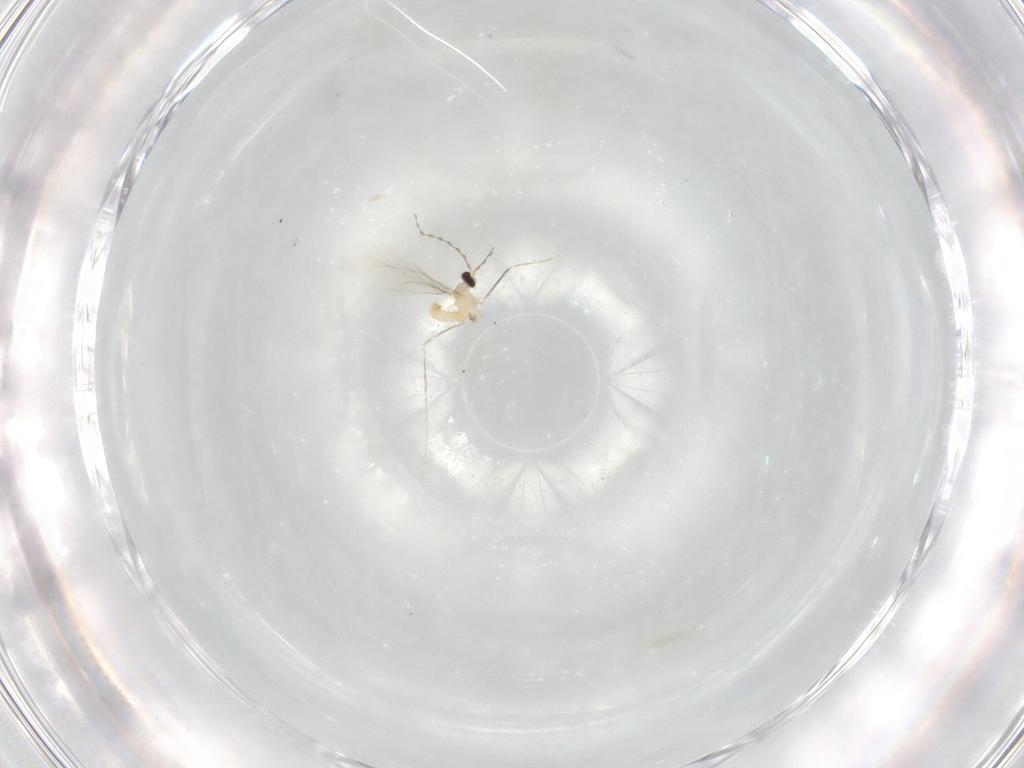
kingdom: Animalia
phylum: Arthropoda
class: Insecta
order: Diptera
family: Cecidomyiidae
